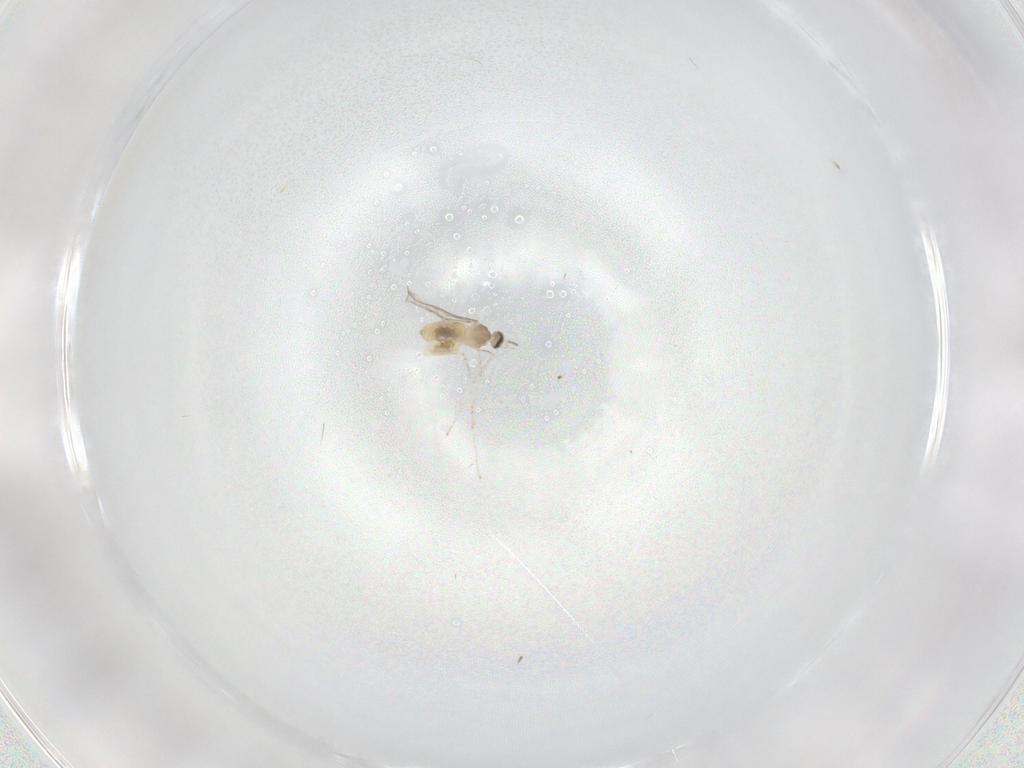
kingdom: Animalia
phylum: Arthropoda
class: Insecta
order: Diptera
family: Cecidomyiidae
